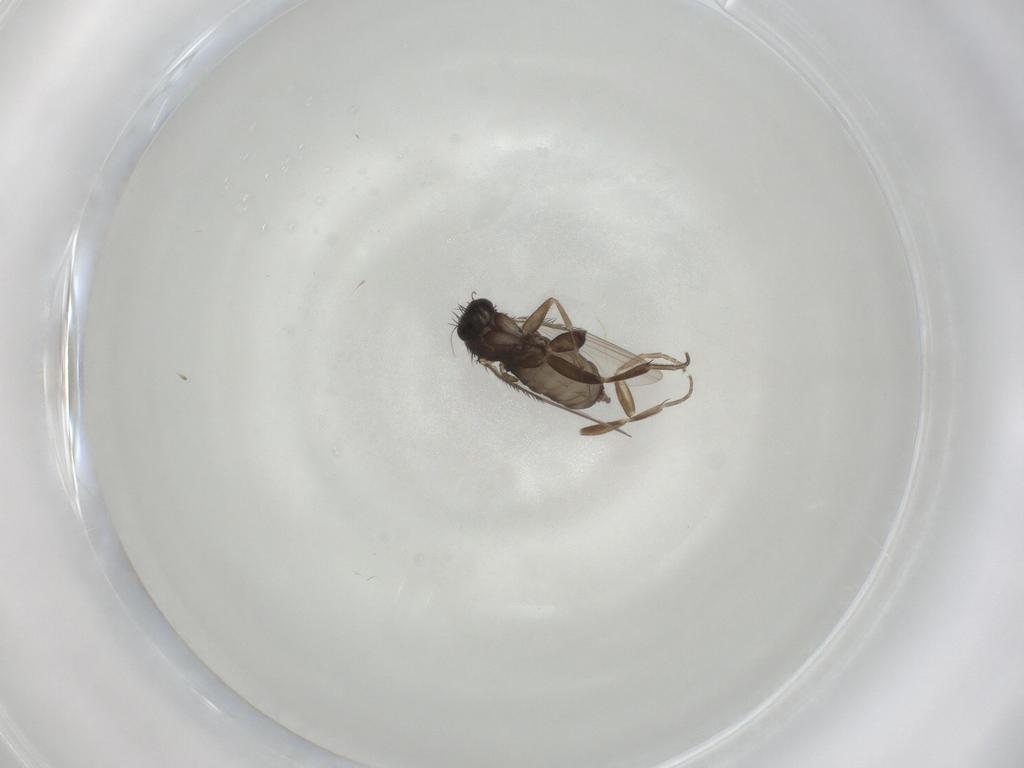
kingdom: Animalia
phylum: Arthropoda
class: Insecta
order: Diptera
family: Phoridae
